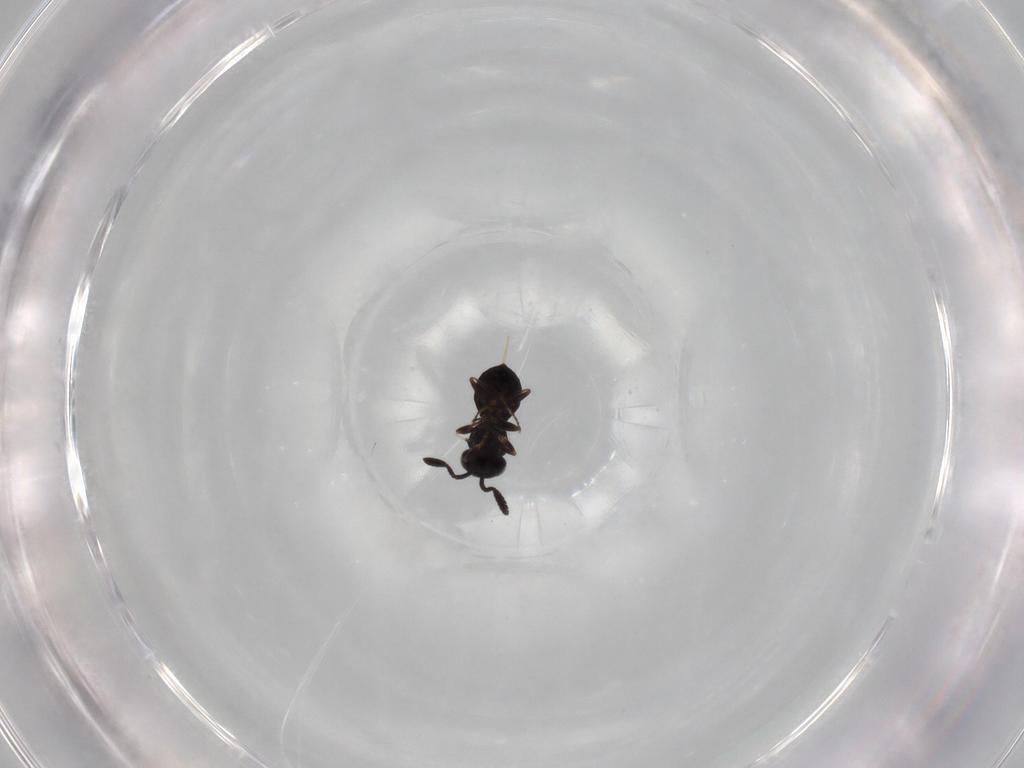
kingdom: Animalia
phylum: Arthropoda
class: Insecta
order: Hymenoptera
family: Scelionidae
